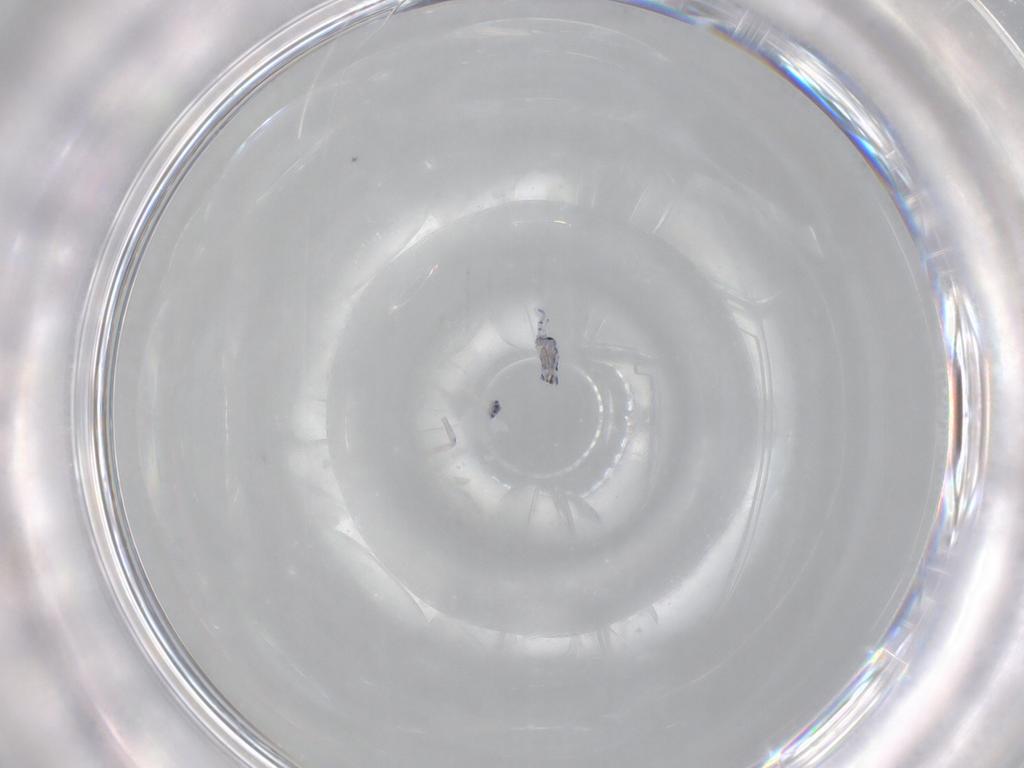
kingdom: Animalia
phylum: Arthropoda
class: Collembola
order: Entomobryomorpha
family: Entomobryidae
